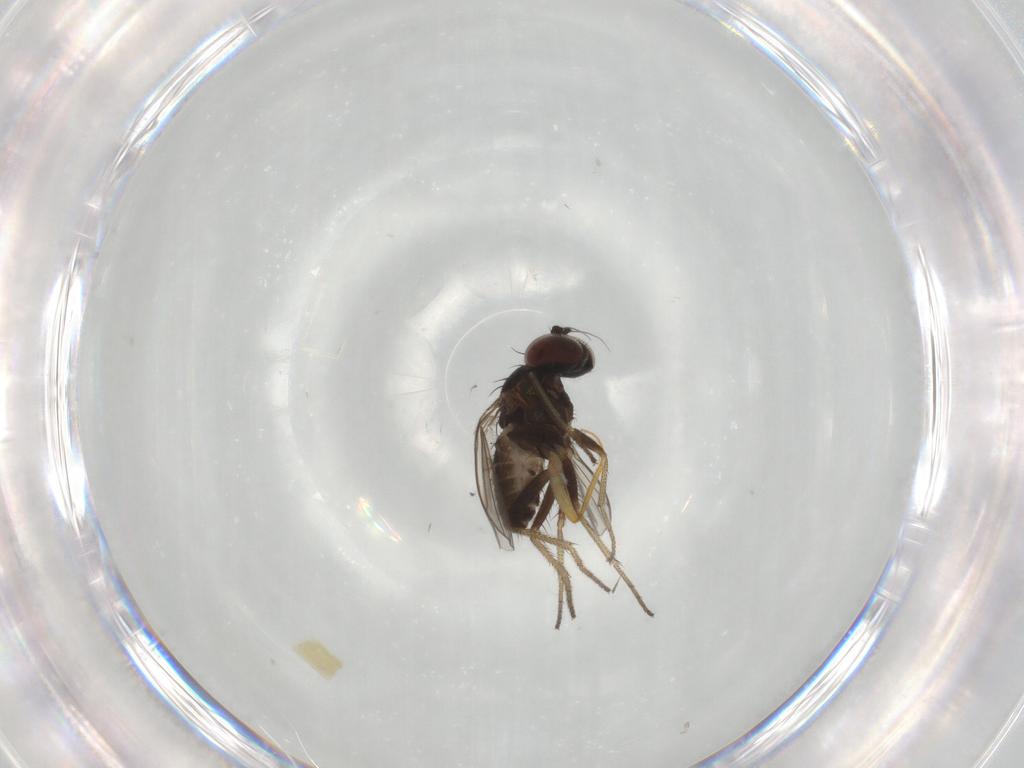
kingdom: Animalia
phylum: Arthropoda
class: Insecta
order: Diptera
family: Dolichopodidae
